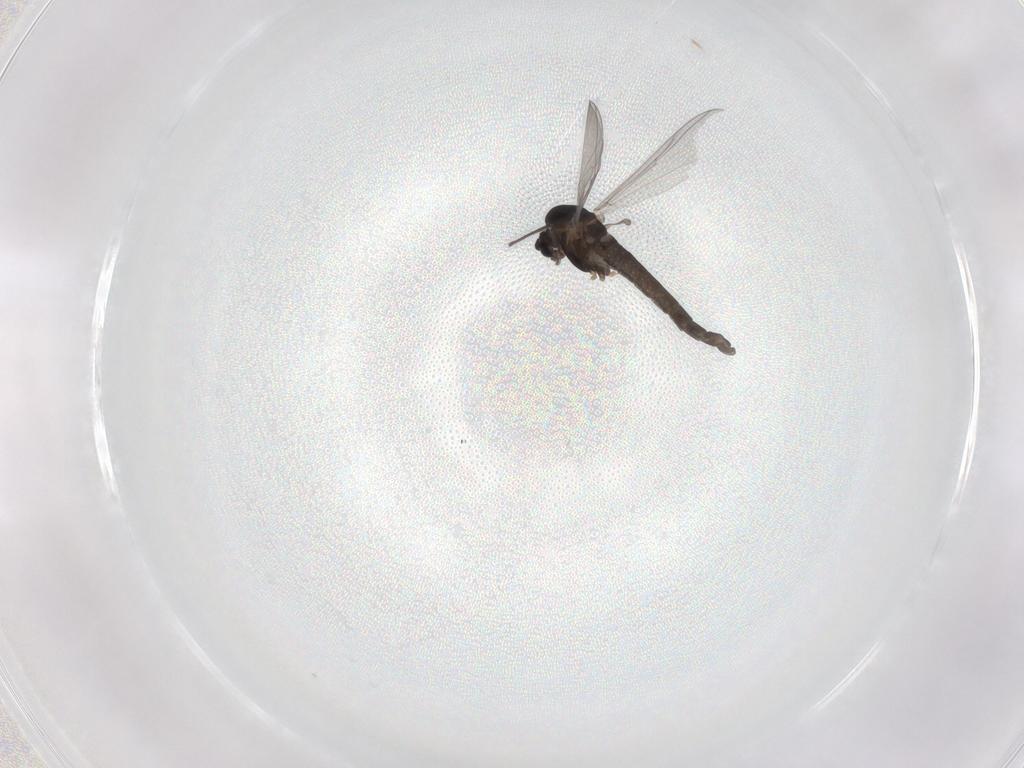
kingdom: Animalia
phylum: Arthropoda
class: Insecta
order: Diptera
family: Chironomidae
